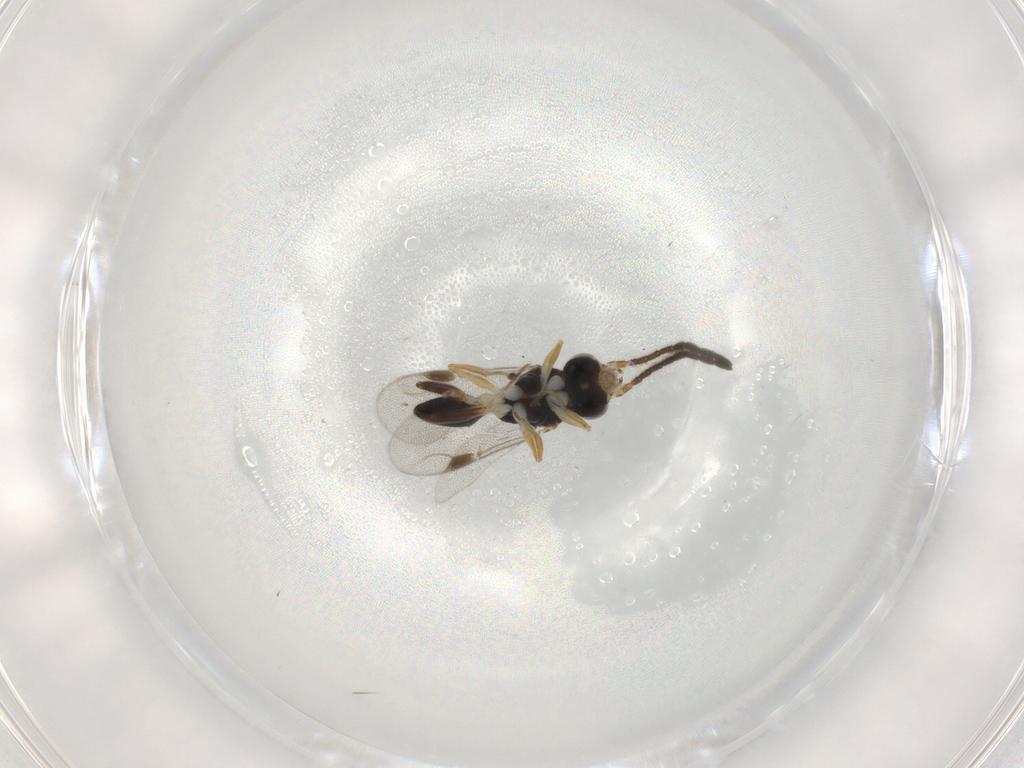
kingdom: Animalia
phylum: Arthropoda
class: Insecta
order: Hymenoptera
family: Dryinidae
